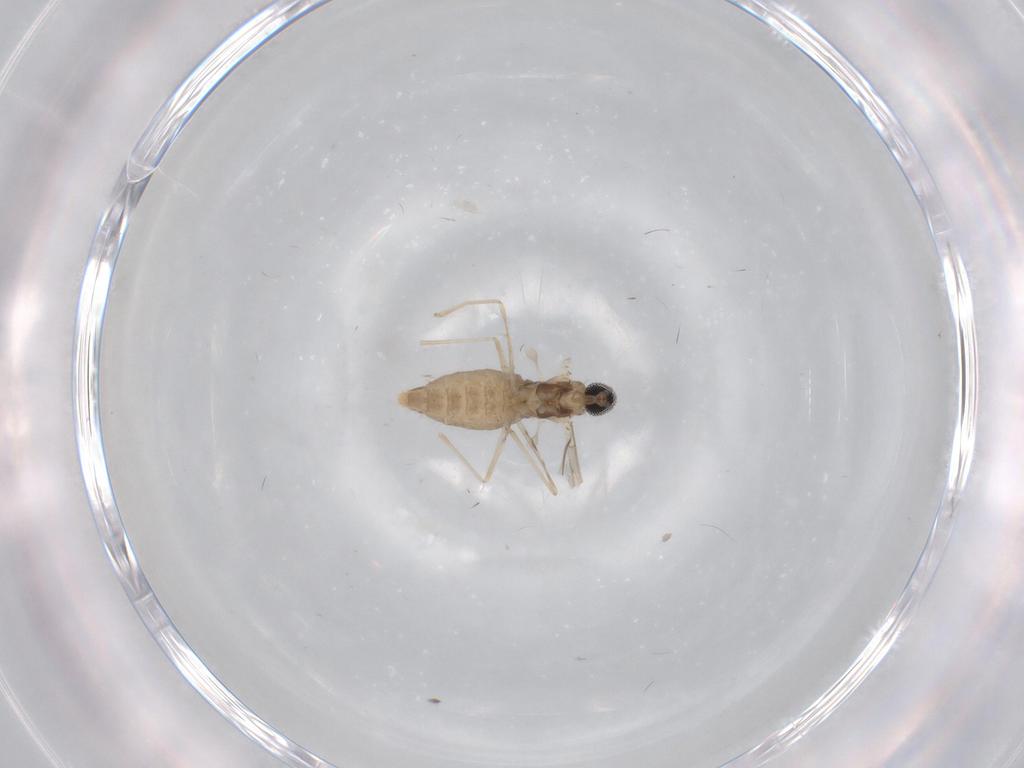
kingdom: Animalia
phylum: Arthropoda
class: Insecta
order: Diptera
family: Cecidomyiidae
